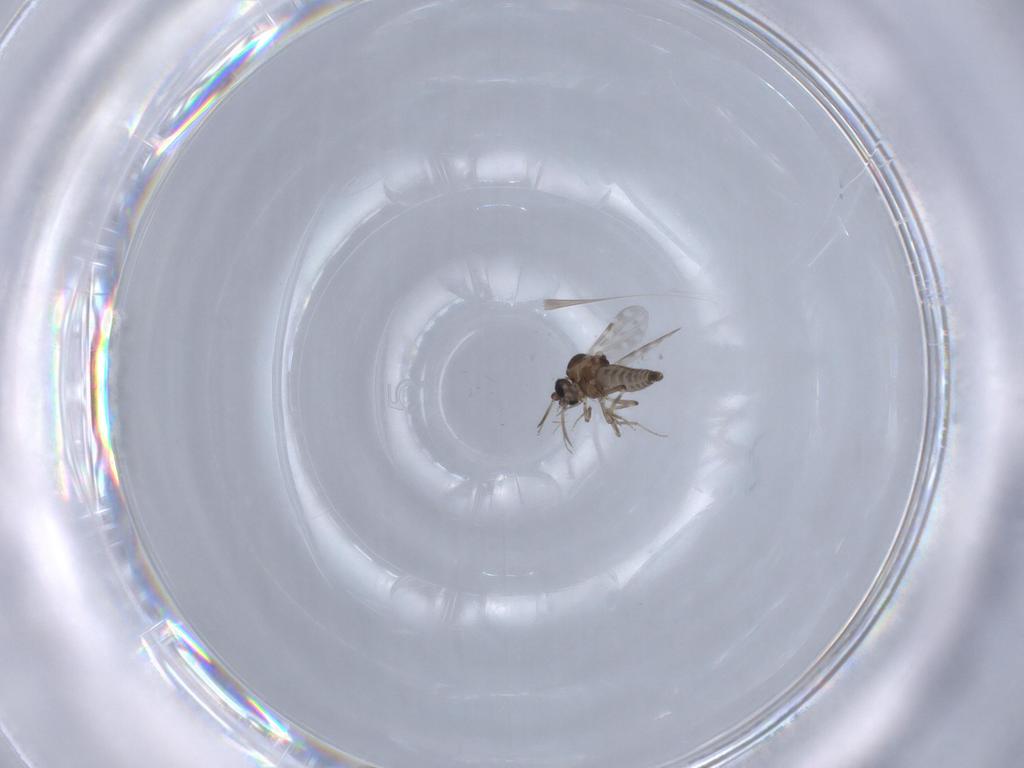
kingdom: Animalia
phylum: Arthropoda
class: Insecta
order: Diptera
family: Ceratopogonidae
